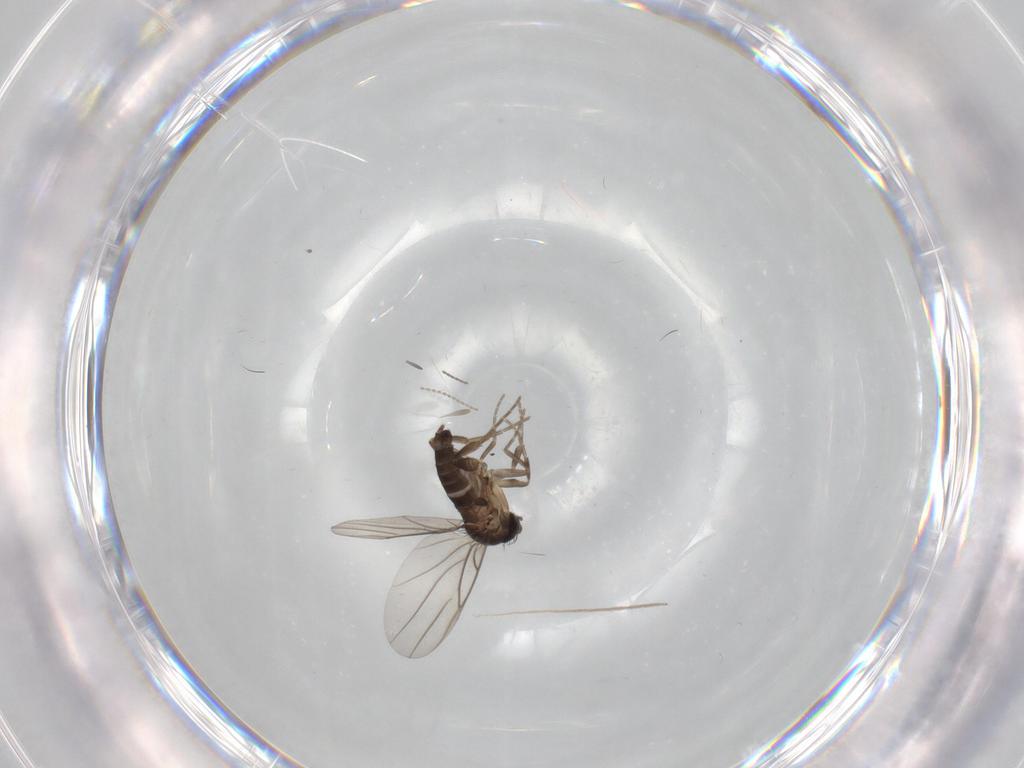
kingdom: Animalia
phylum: Arthropoda
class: Insecta
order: Diptera
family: Phoridae
